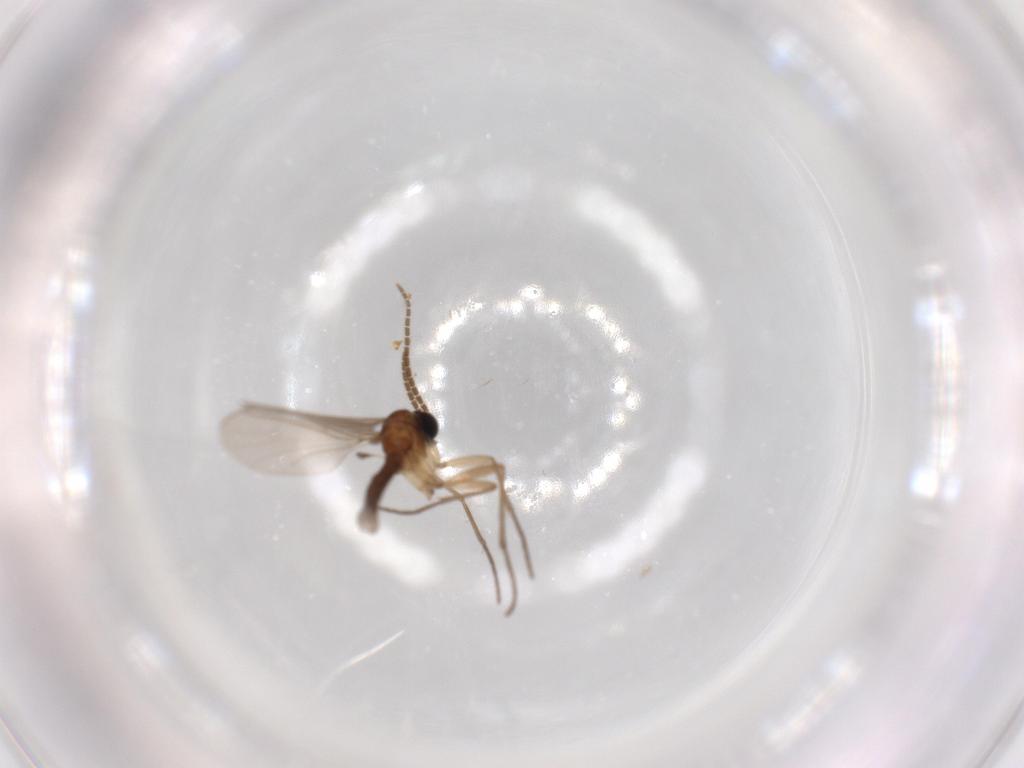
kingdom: Animalia
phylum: Arthropoda
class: Insecta
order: Diptera
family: Sciaridae
